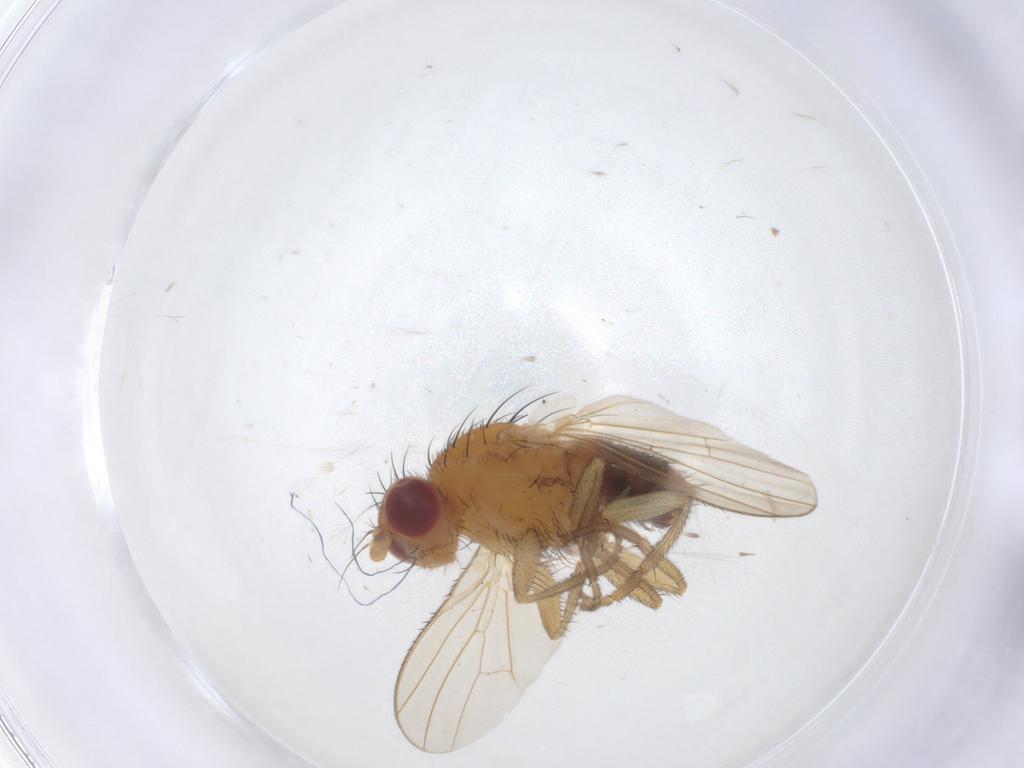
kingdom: Animalia
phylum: Arthropoda
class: Insecta
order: Diptera
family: Heleomyzidae
